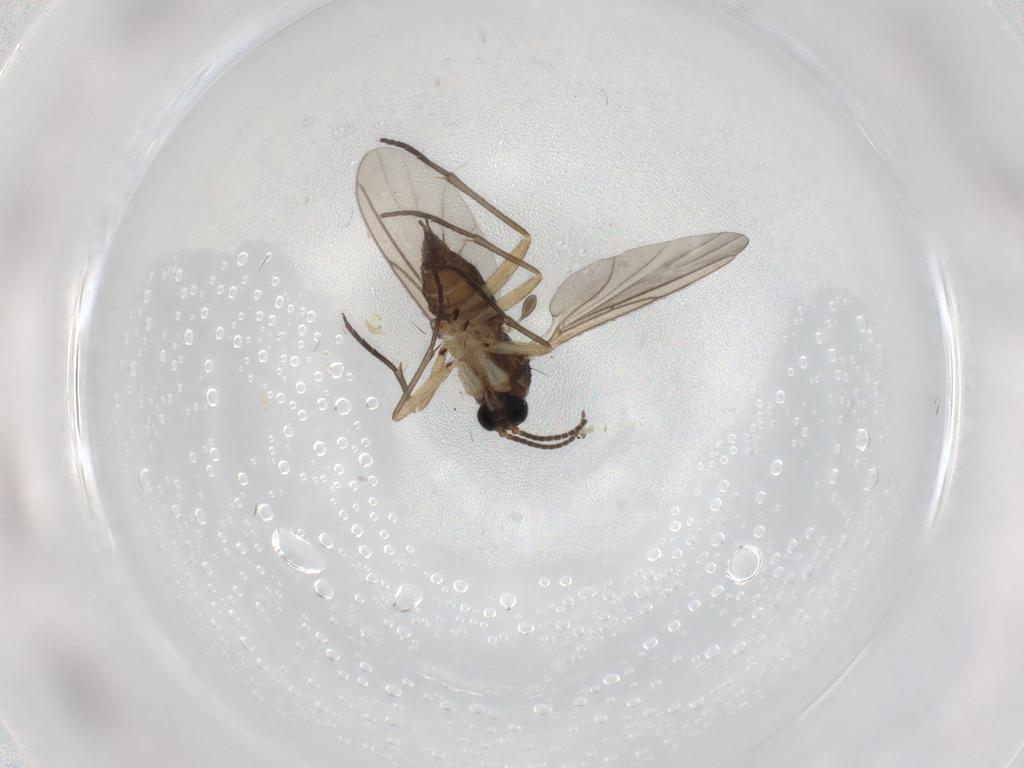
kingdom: Animalia
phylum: Arthropoda
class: Insecta
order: Diptera
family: Sciaridae
